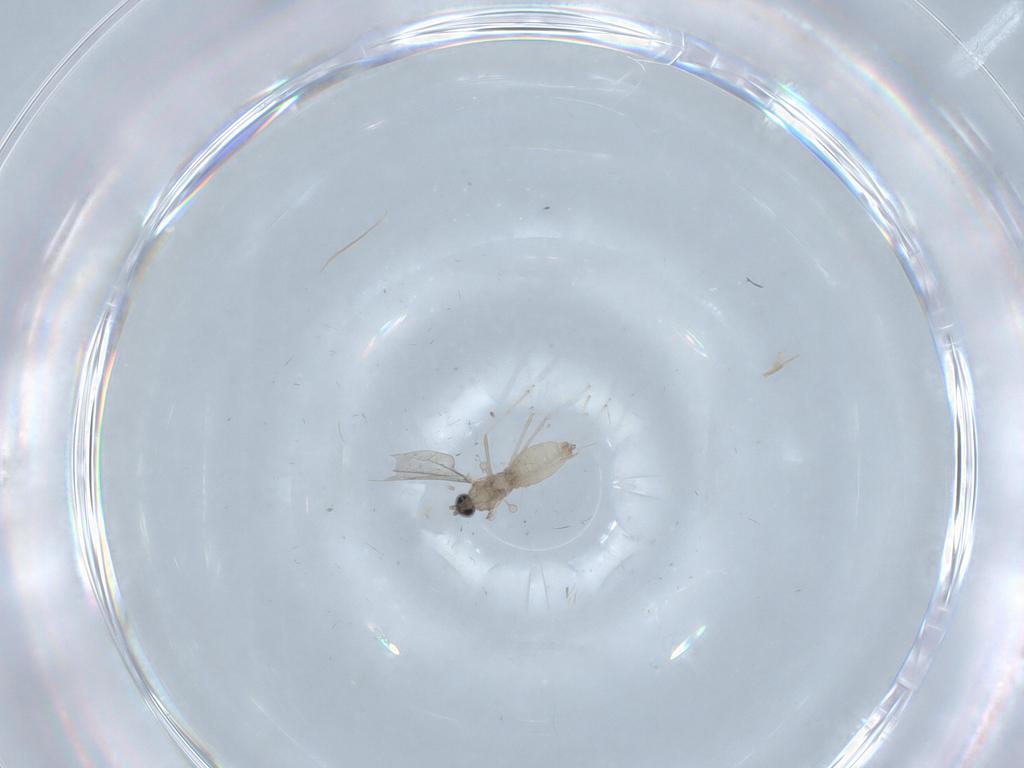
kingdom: Animalia
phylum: Arthropoda
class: Insecta
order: Diptera
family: Cecidomyiidae
